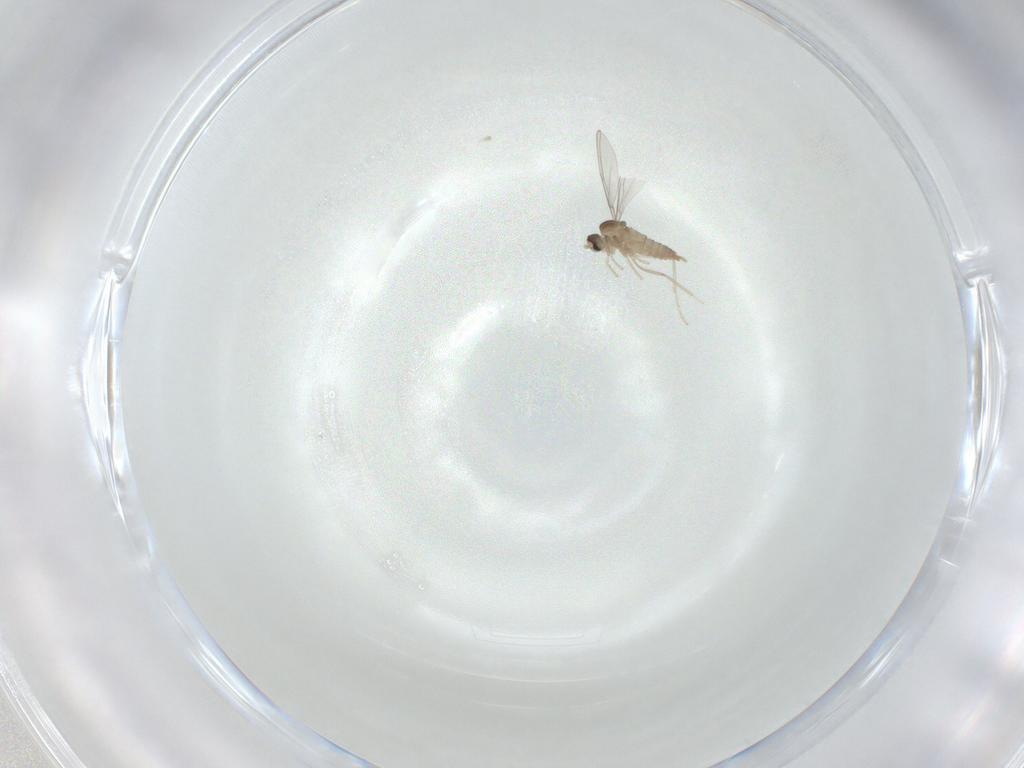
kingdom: Animalia
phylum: Arthropoda
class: Insecta
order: Diptera
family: Cecidomyiidae
